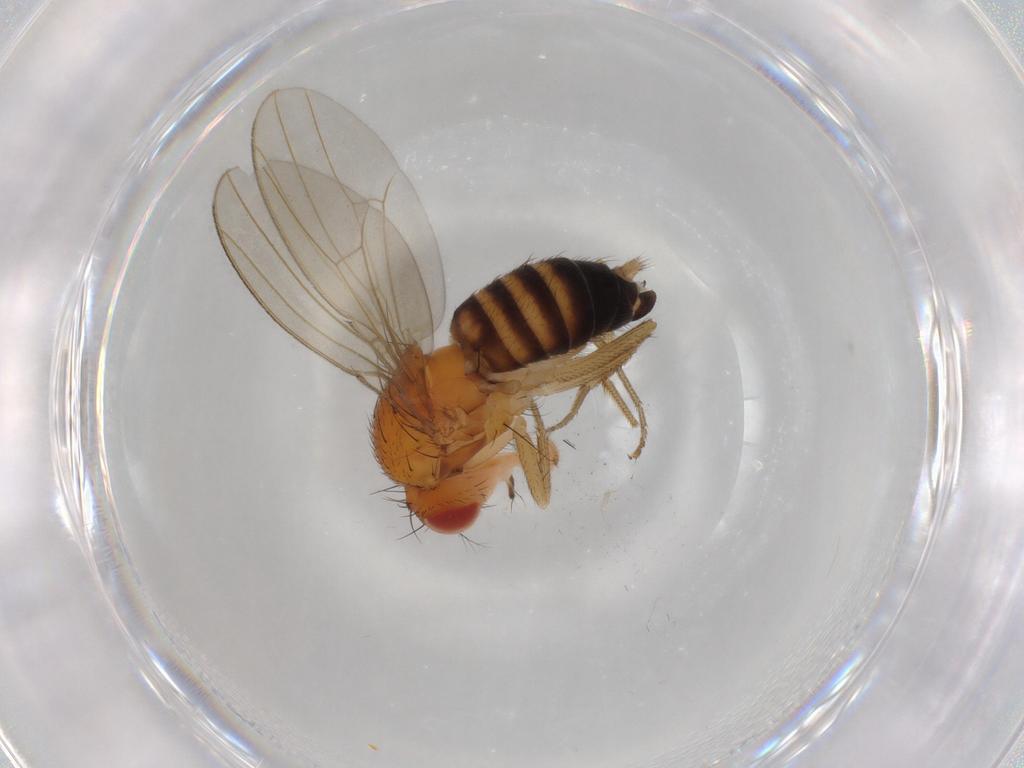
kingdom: Animalia
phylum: Arthropoda
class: Insecta
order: Diptera
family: Drosophilidae
